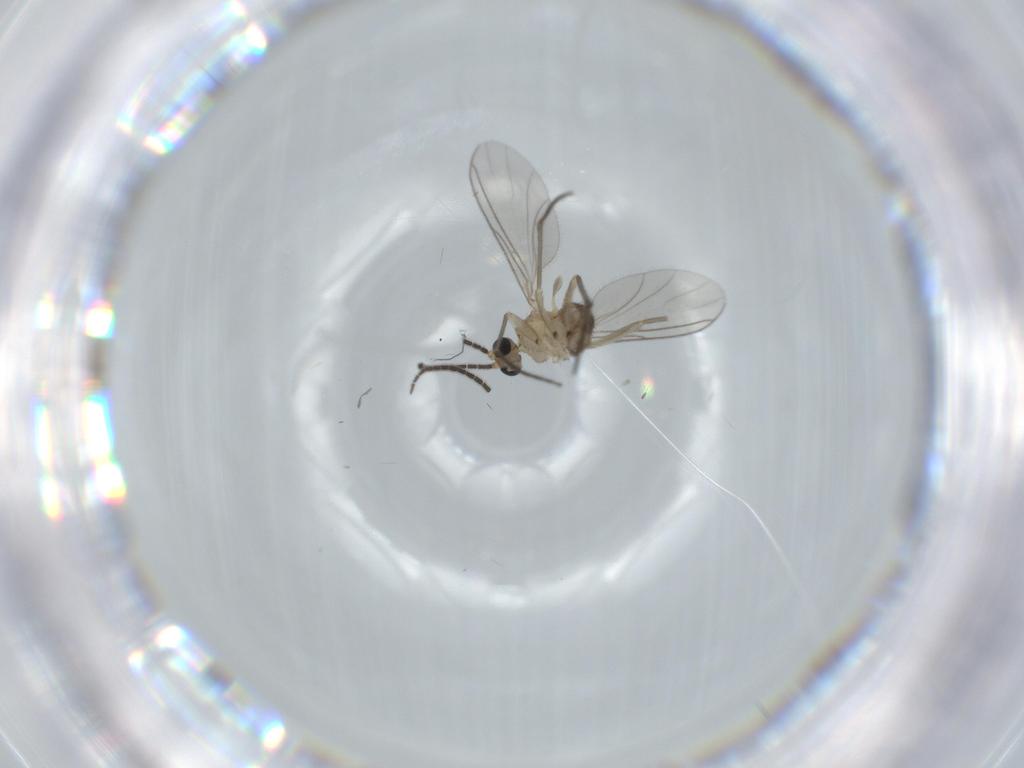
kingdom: Animalia
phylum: Arthropoda
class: Insecta
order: Diptera
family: Sciaridae
